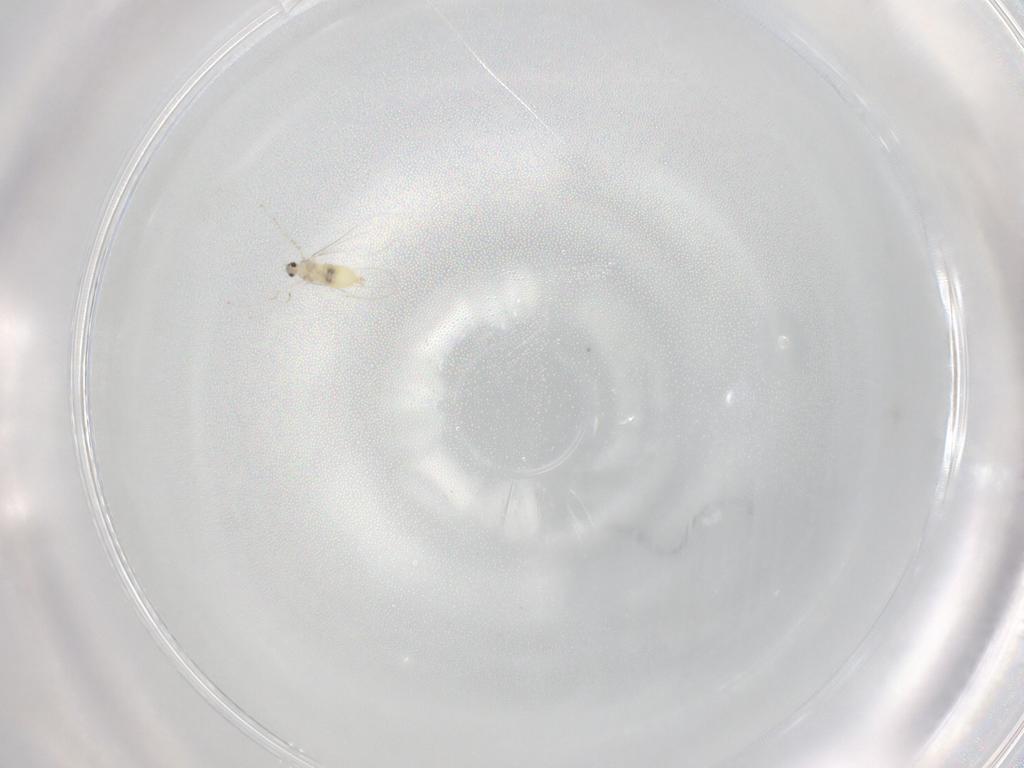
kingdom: Animalia
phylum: Arthropoda
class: Insecta
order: Diptera
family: Cecidomyiidae
